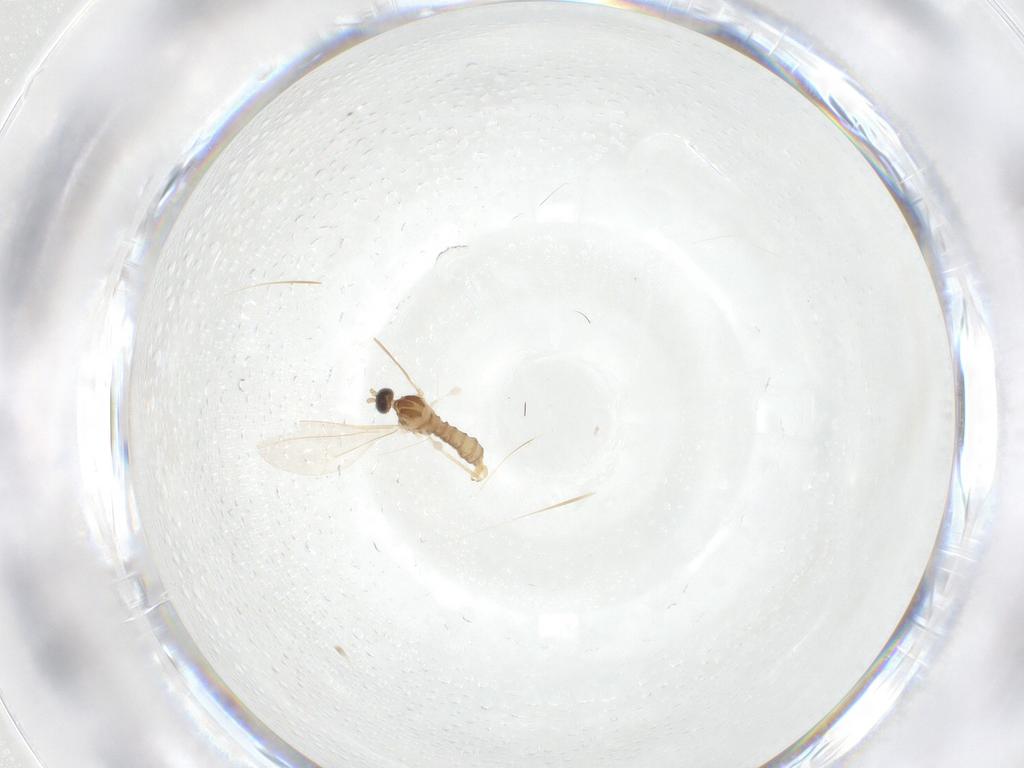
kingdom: Animalia
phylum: Arthropoda
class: Insecta
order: Diptera
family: Cecidomyiidae
